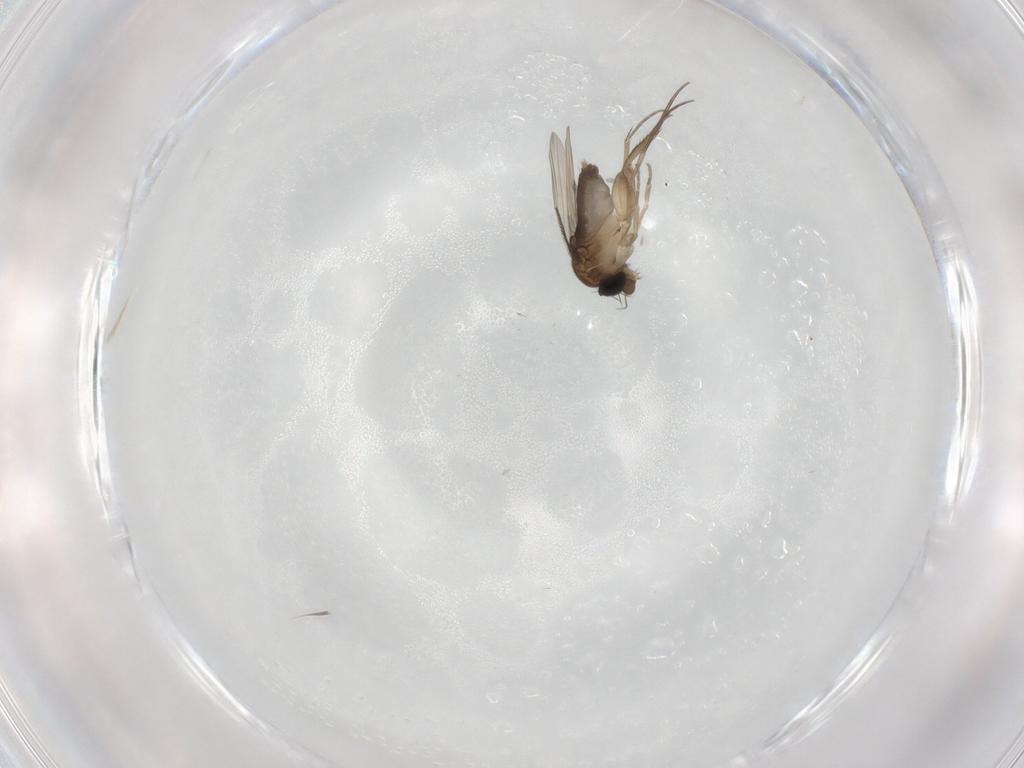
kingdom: Animalia
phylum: Arthropoda
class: Insecta
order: Diptera
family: Phoridae
